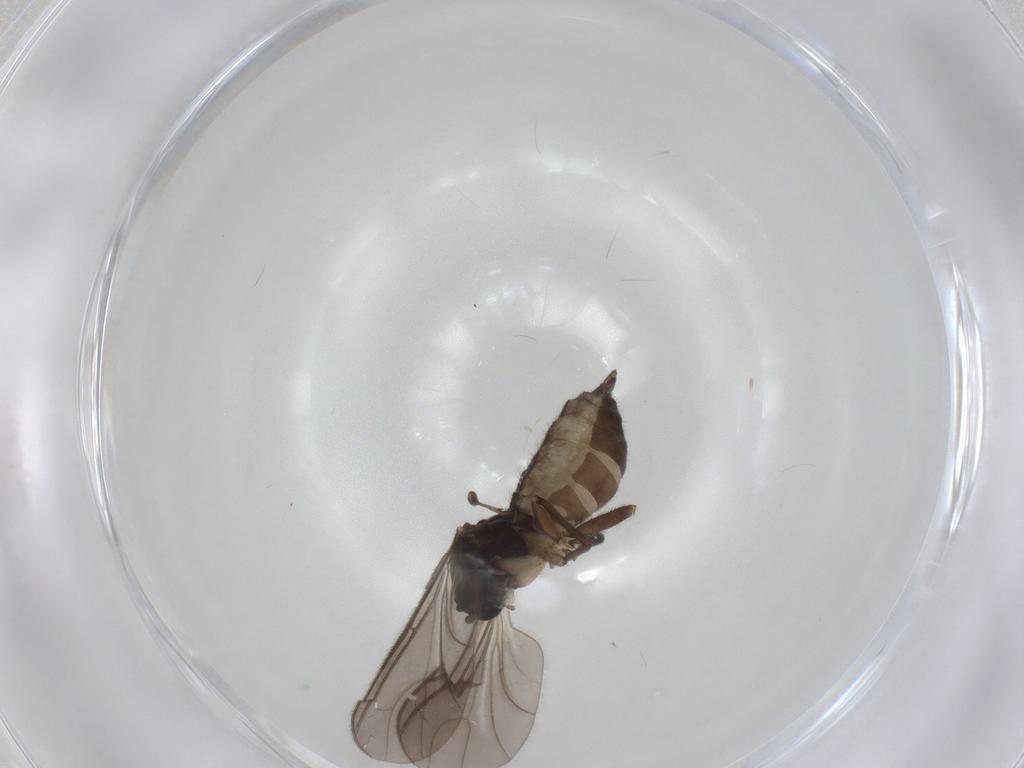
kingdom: Animalia
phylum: Arthropoda
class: Insecta
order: Diptera
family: Sciaridae
